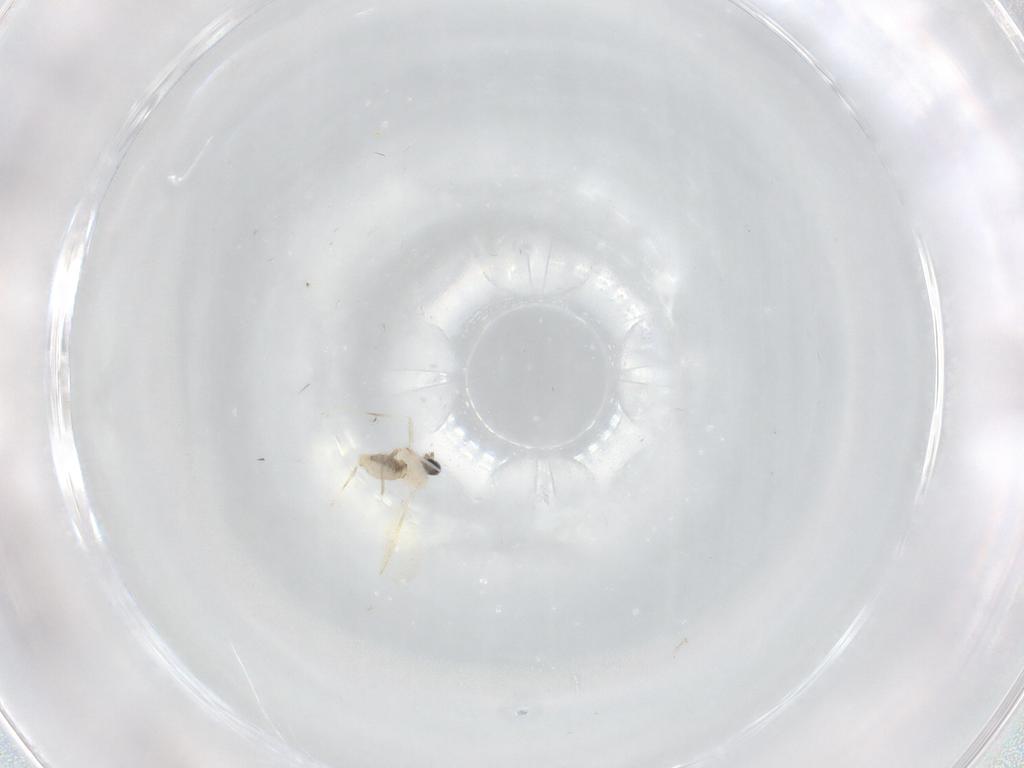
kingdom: Animalia
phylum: Arthropoda
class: Insecta
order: Diptera
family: Cecidomyiidae
